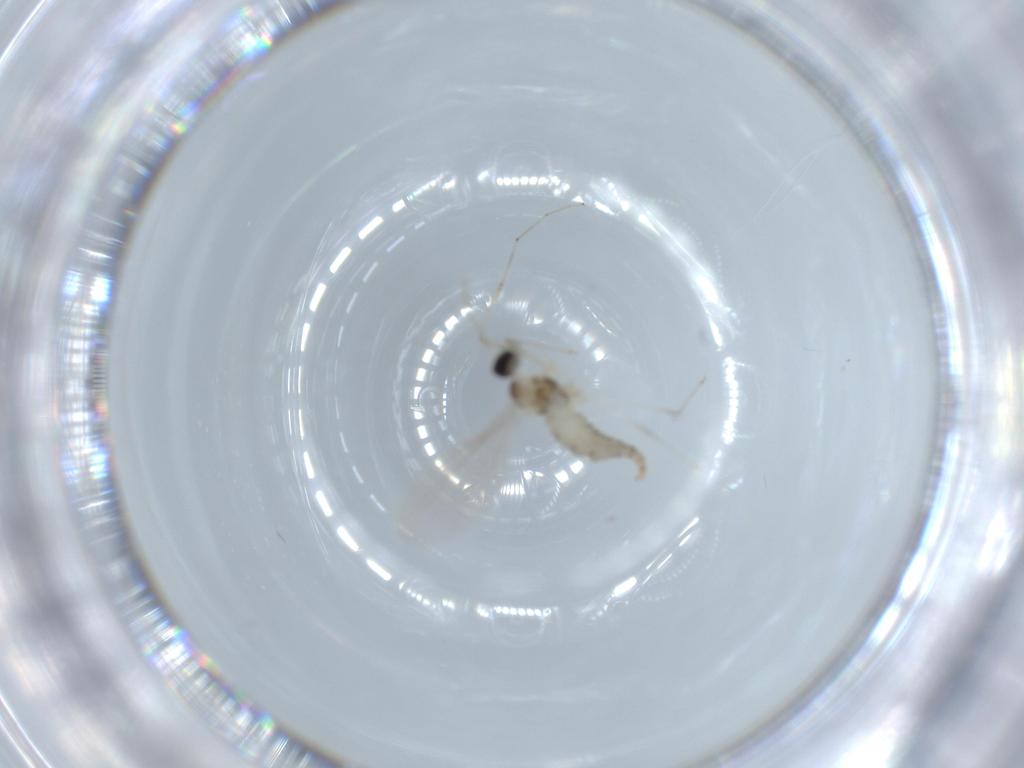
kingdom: Animalia
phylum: Arthropoda
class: Insecta
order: Diptera
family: Cecidomyiidae
